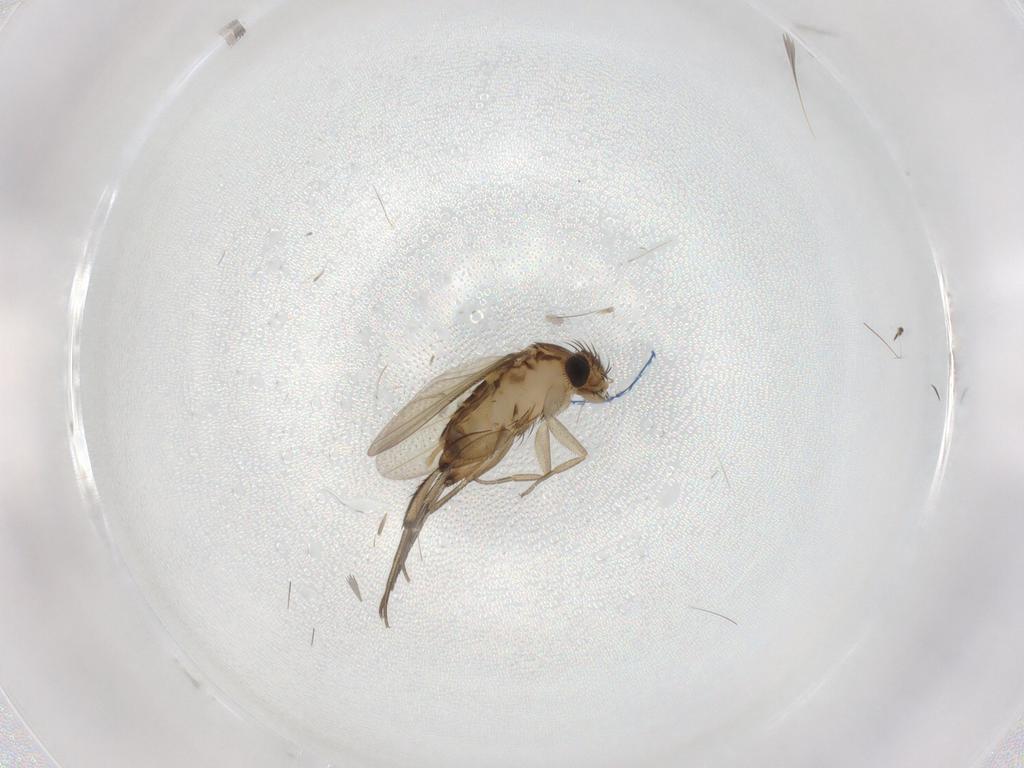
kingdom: Animalia
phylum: Arthropoda
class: Insecta
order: Diptera
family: Phoridae
